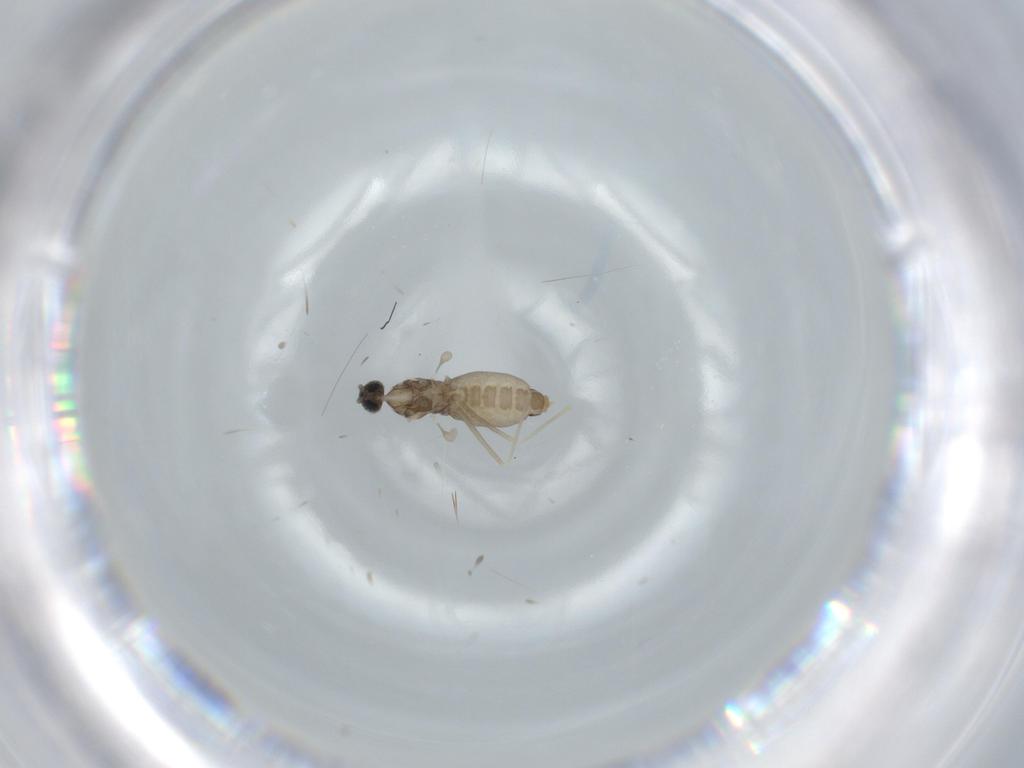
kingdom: Animalia
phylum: Arthropoda
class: Insecta
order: Diptera
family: Cecidomyiidae
